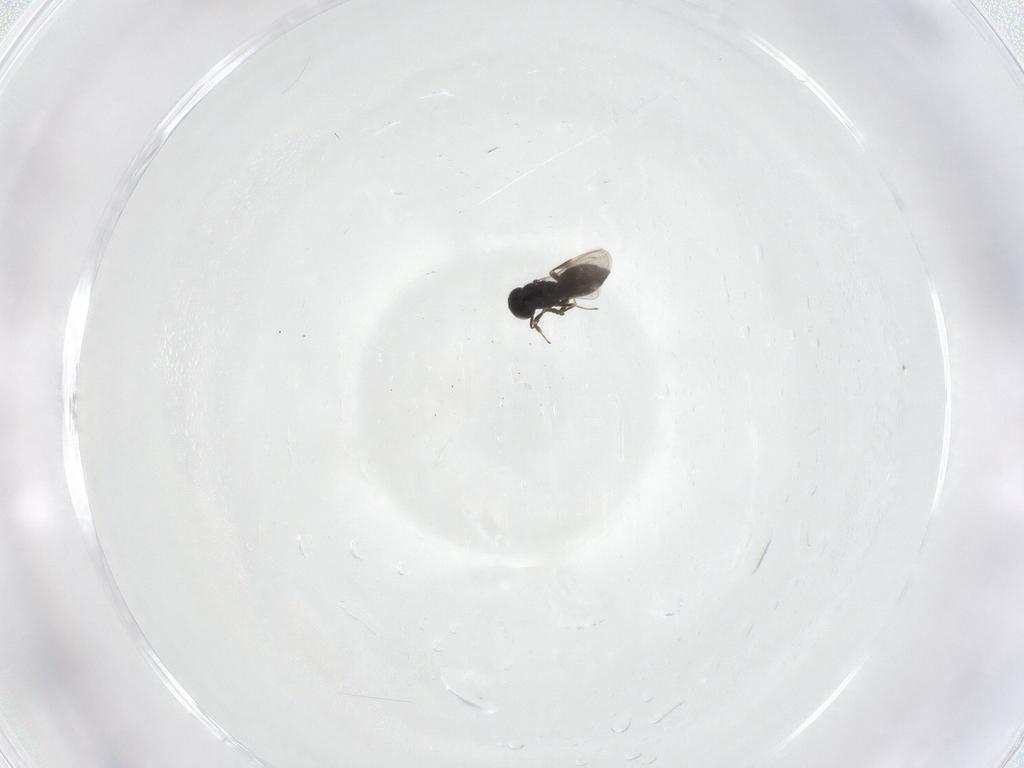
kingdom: Animalia
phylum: Arthropoda
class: Insecta
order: Hymenoptera
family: Scelionidae
